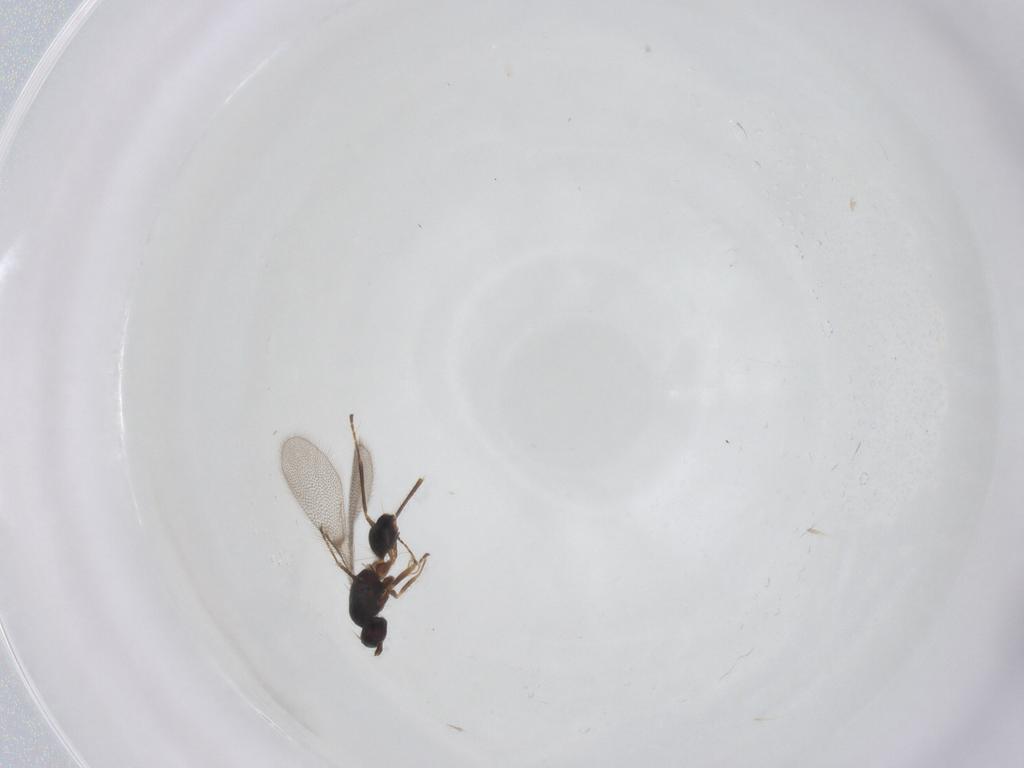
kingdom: Animalia
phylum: Arthropoda
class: Insecta
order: Hymenoptera
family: Mymaridae
